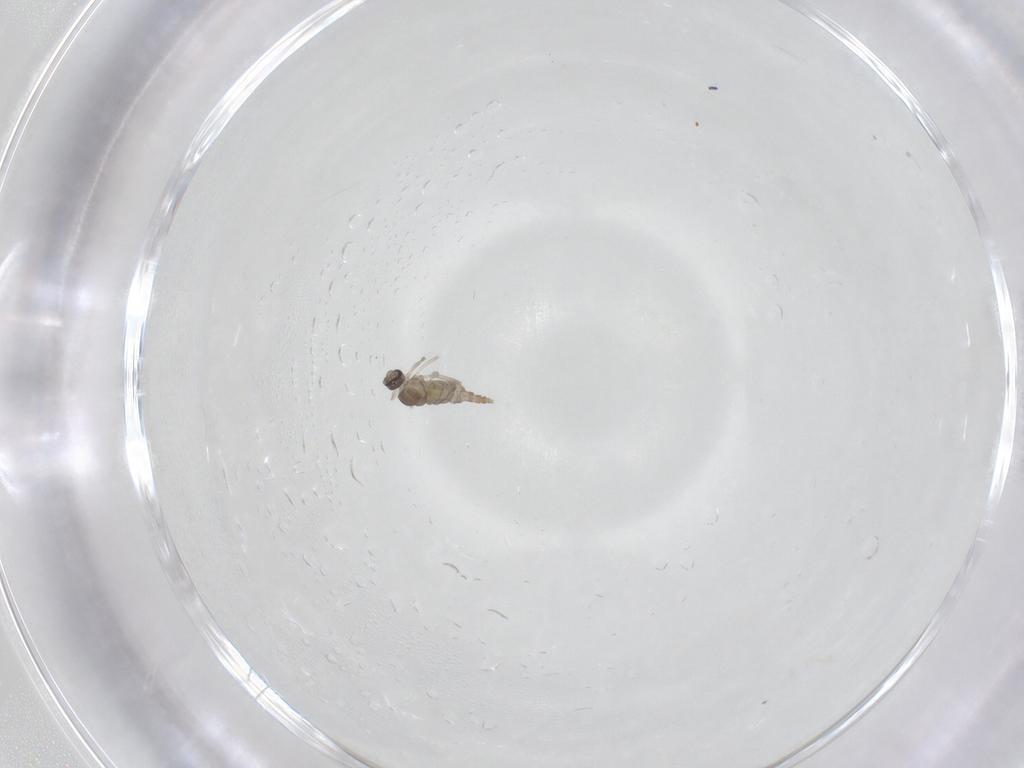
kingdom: Animalia
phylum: Arthropoda
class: Insecta
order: Diptera
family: Cecidomyiidae
